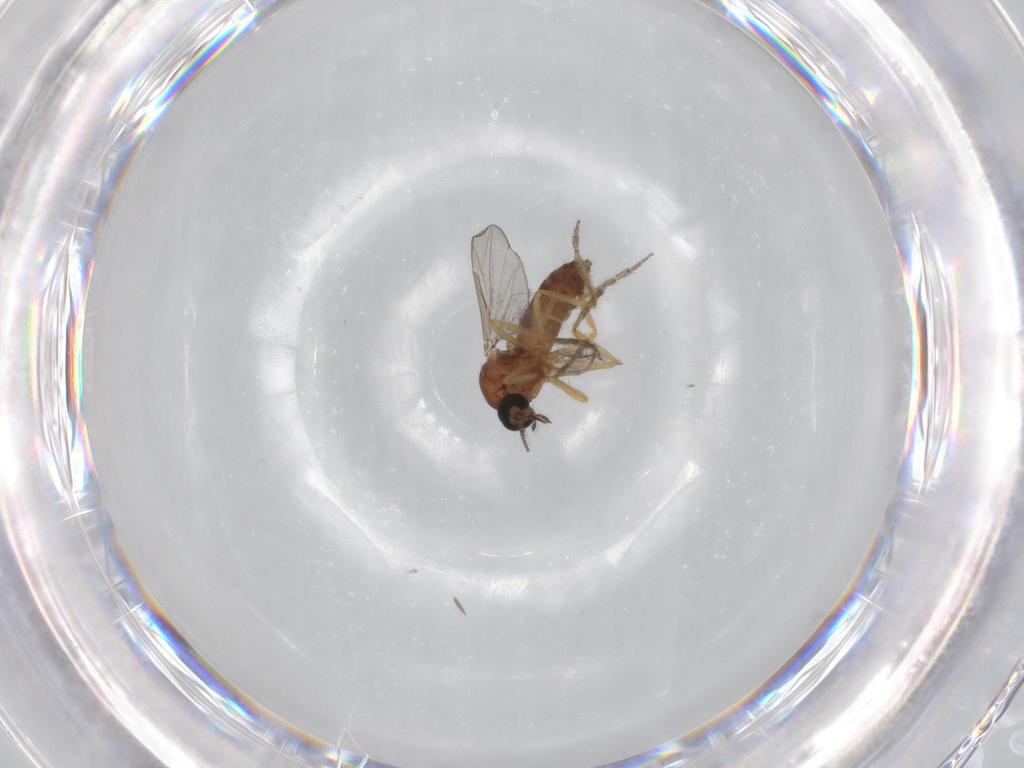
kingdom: Animalia
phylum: Arthropoda
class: Insecta
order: Diptera
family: Ceratopogonidae
